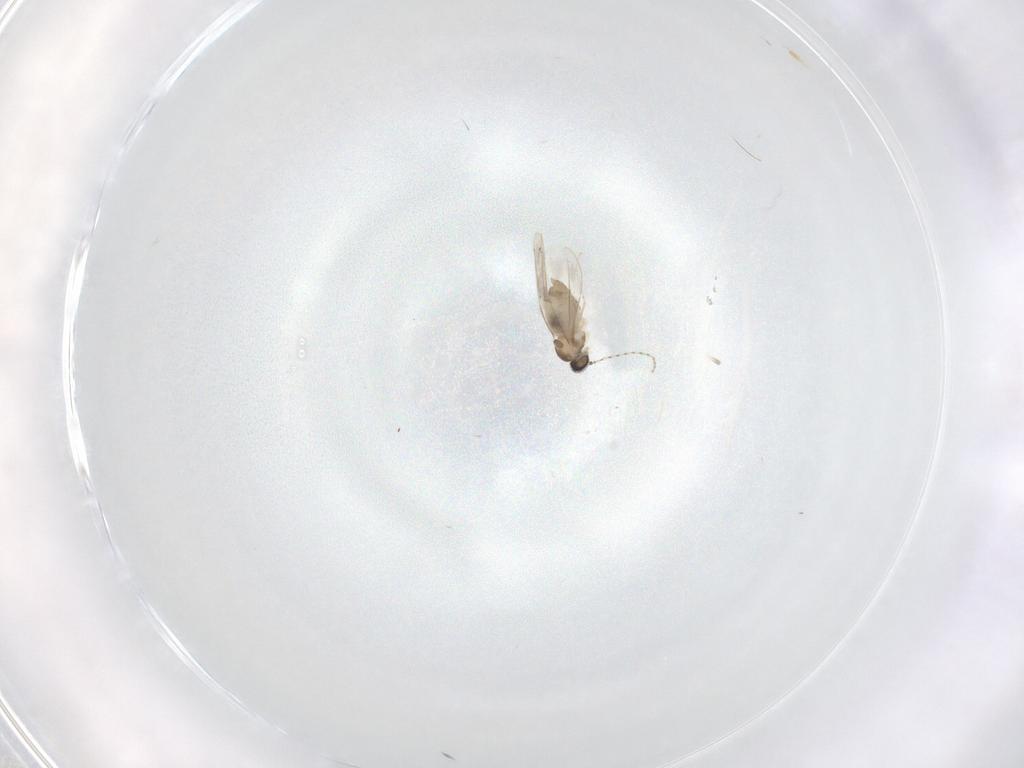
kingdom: Animalia
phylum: Arthropoda
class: Insecta
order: Diptera
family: Cecidomyiidae
